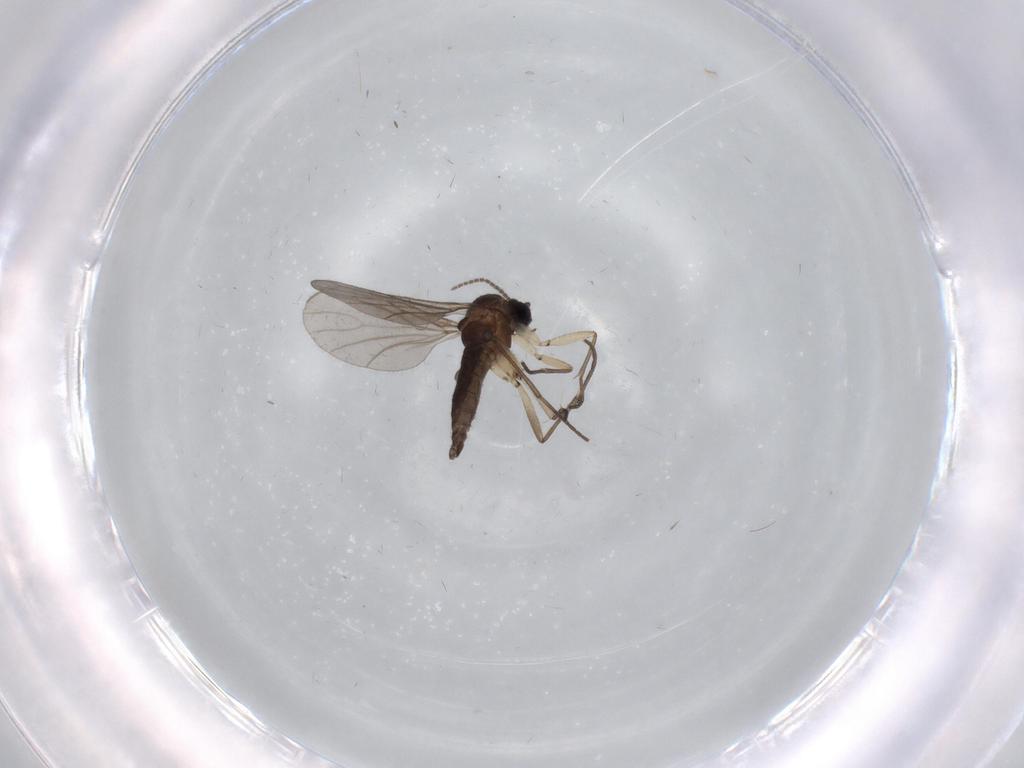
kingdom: Animalia
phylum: Arthropoda
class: Insecta
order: Diptera
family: Sciaridae
